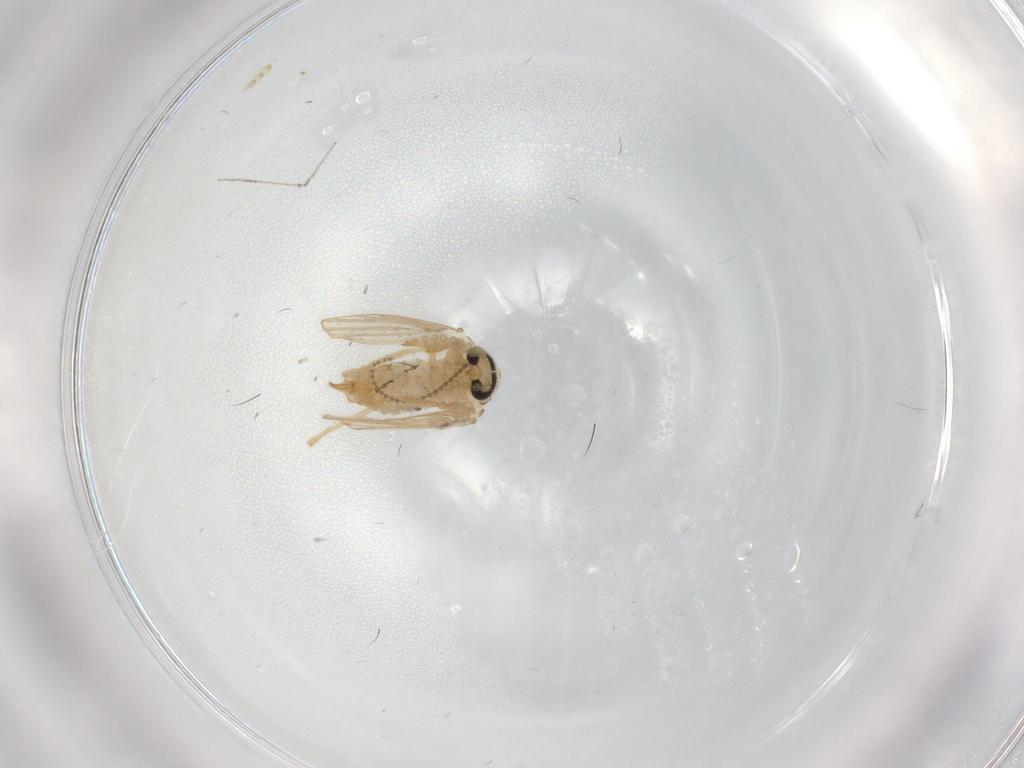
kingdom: Animalia
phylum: Arthropoda
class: Insecta
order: Diptera
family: Psychodidae
